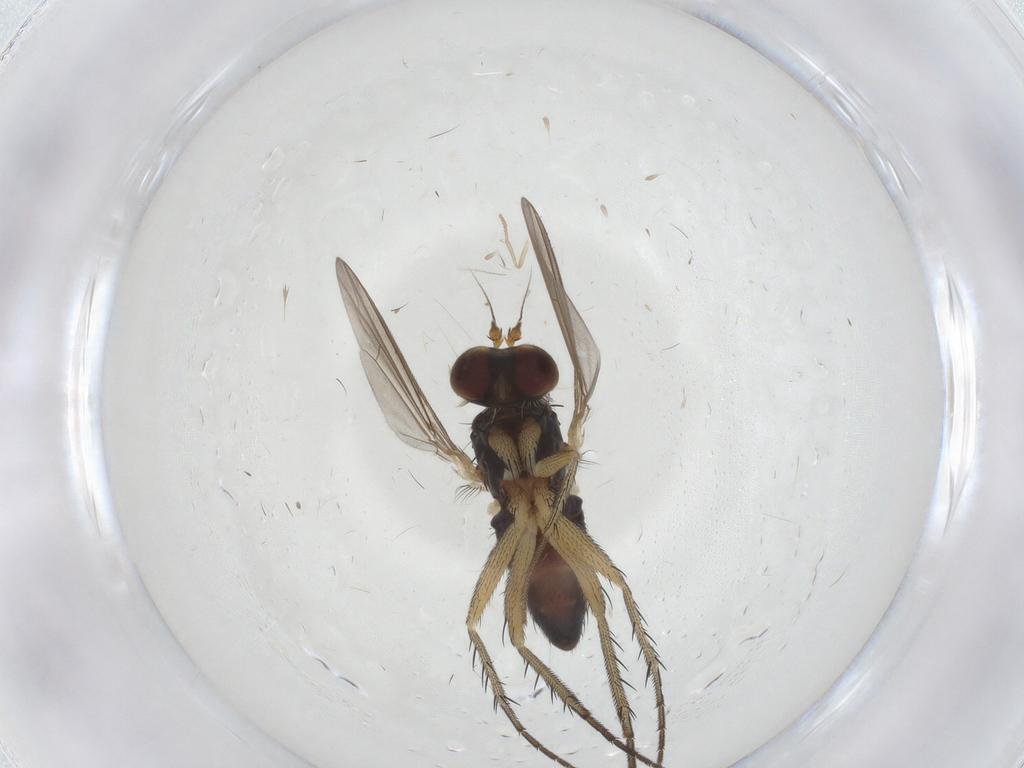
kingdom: Animalia
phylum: Arthropoda
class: Insecta
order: Diptera
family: Dolichopodidae
